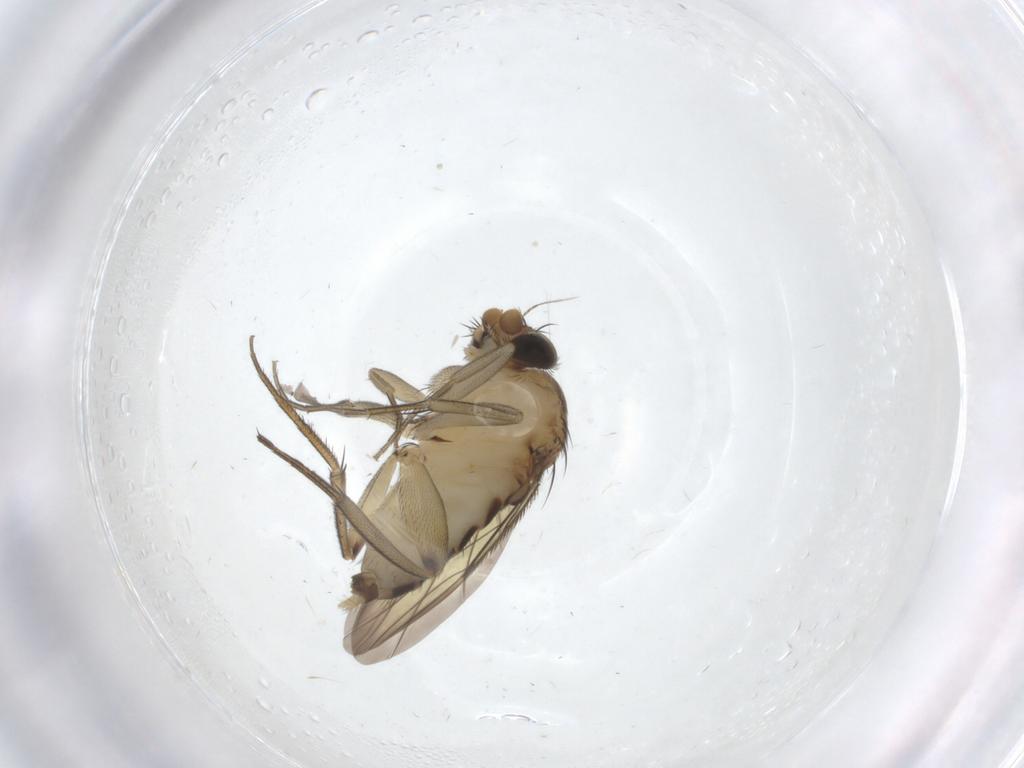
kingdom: Animalia
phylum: Arthropoda
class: Insecta
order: Diptera
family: Phoridae
